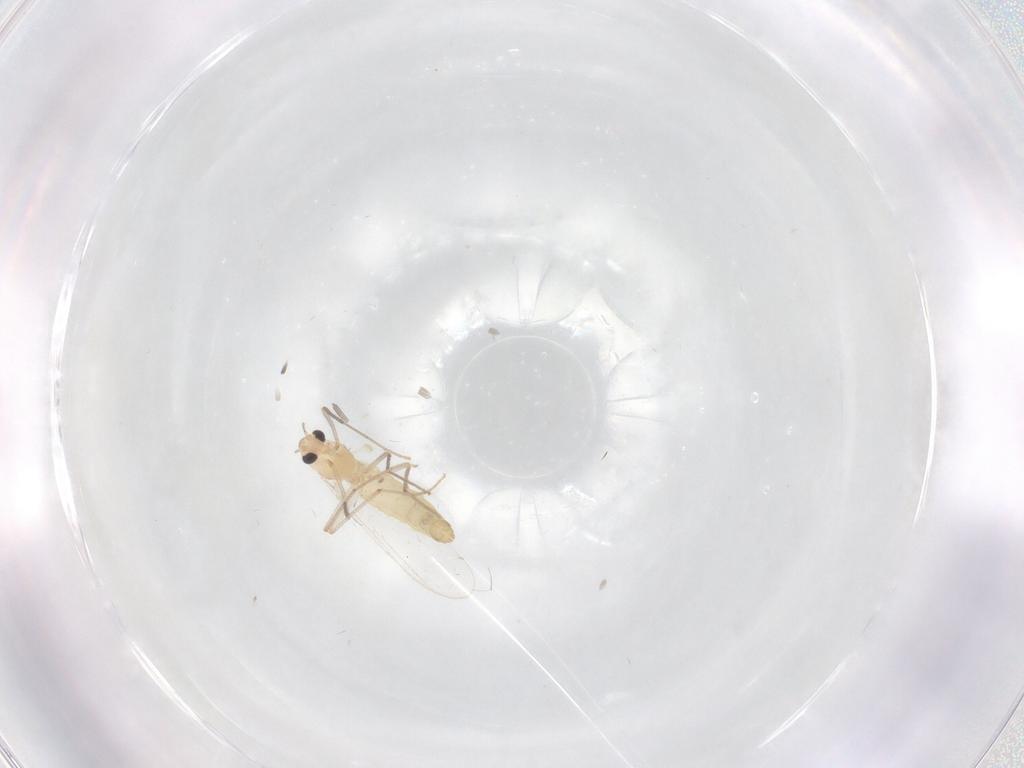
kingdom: Animalia
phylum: Arthropoda
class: Insecta
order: Diptera
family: Chironomidae
